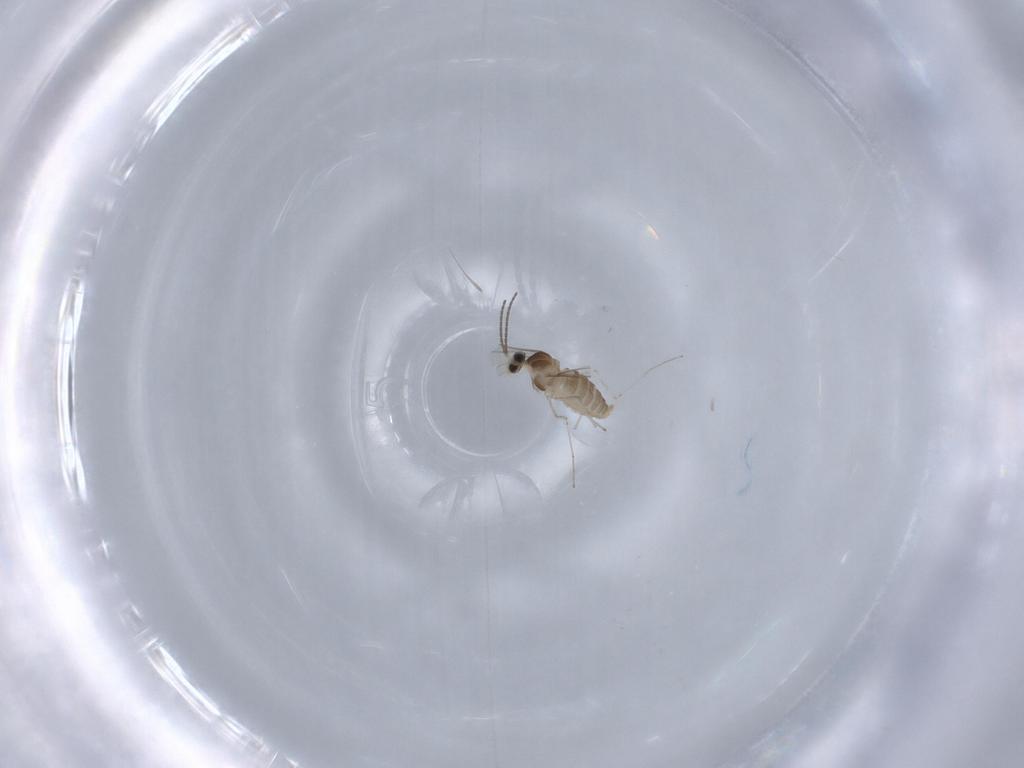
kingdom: Animalia
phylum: Arthropoda
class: Insecta
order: Diptera
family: Cecidomyiidae
